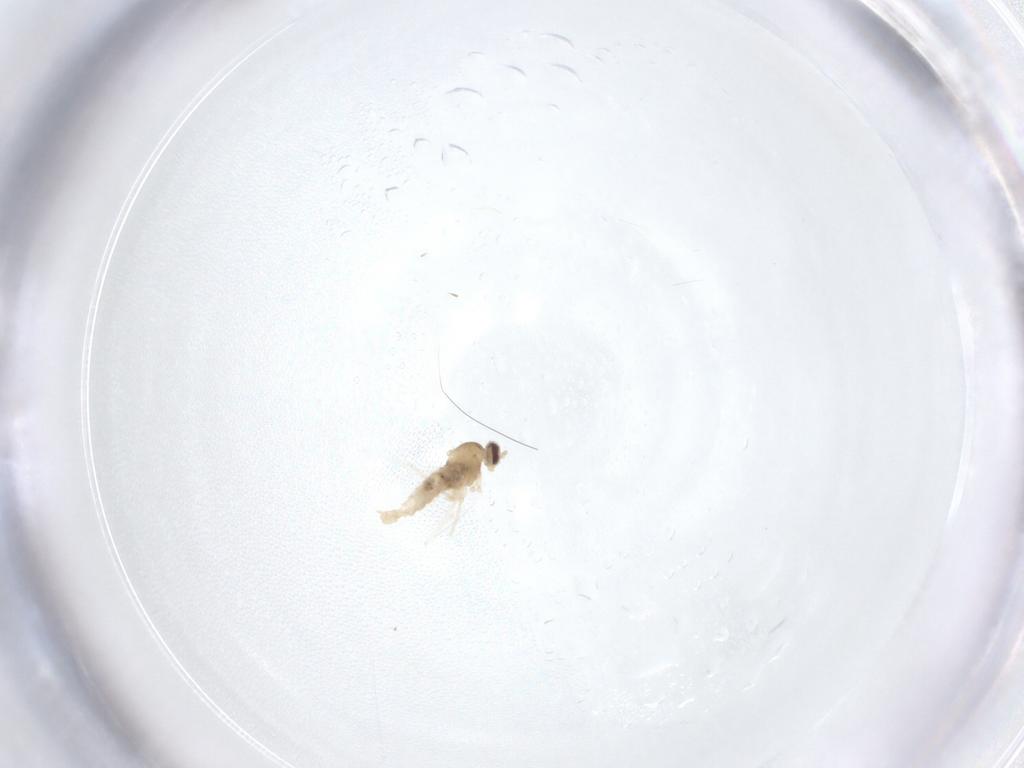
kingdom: Animalia
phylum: Arthropoda
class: Insecta
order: Diptera
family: Cecidomyiidae
